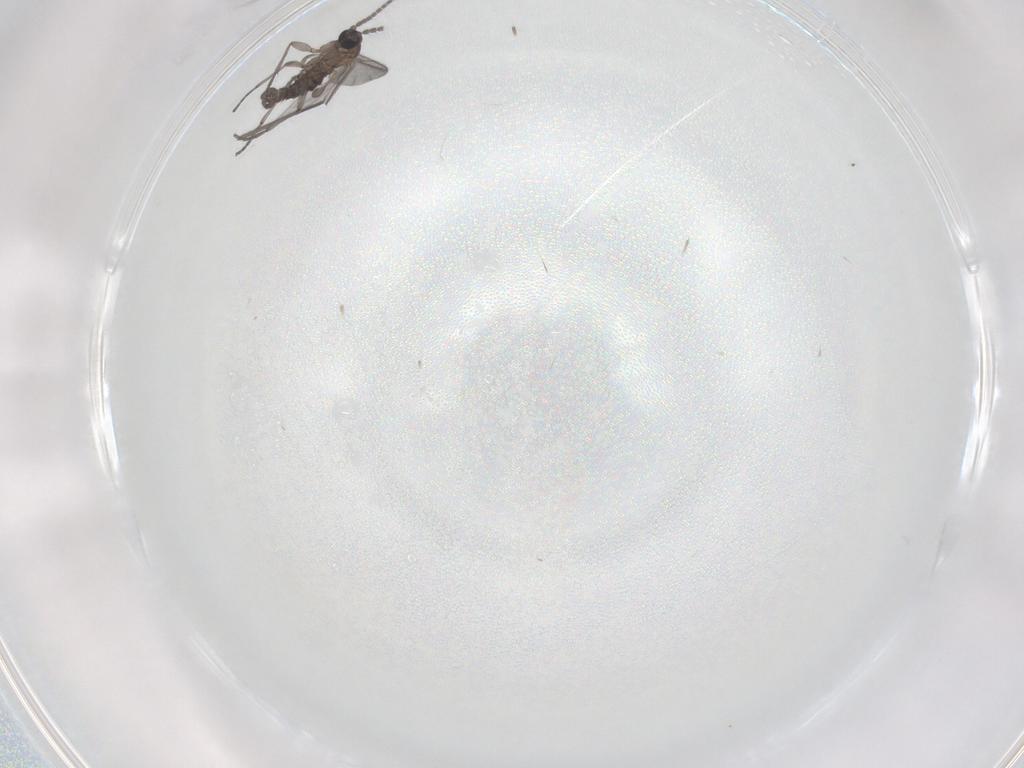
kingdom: Animalia
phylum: Arthropoda
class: Insecta
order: Diptera
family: Sciaridae
